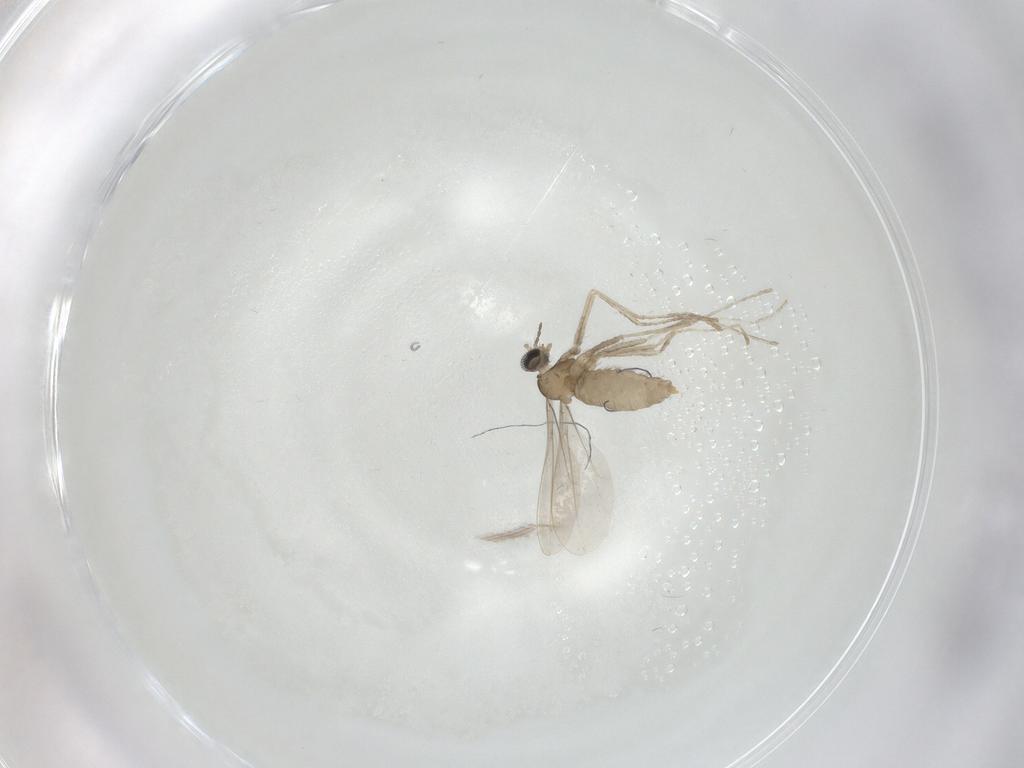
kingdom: Animalia
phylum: Arthropoda
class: Insecta
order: Diptera
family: Cecidomyiidae
